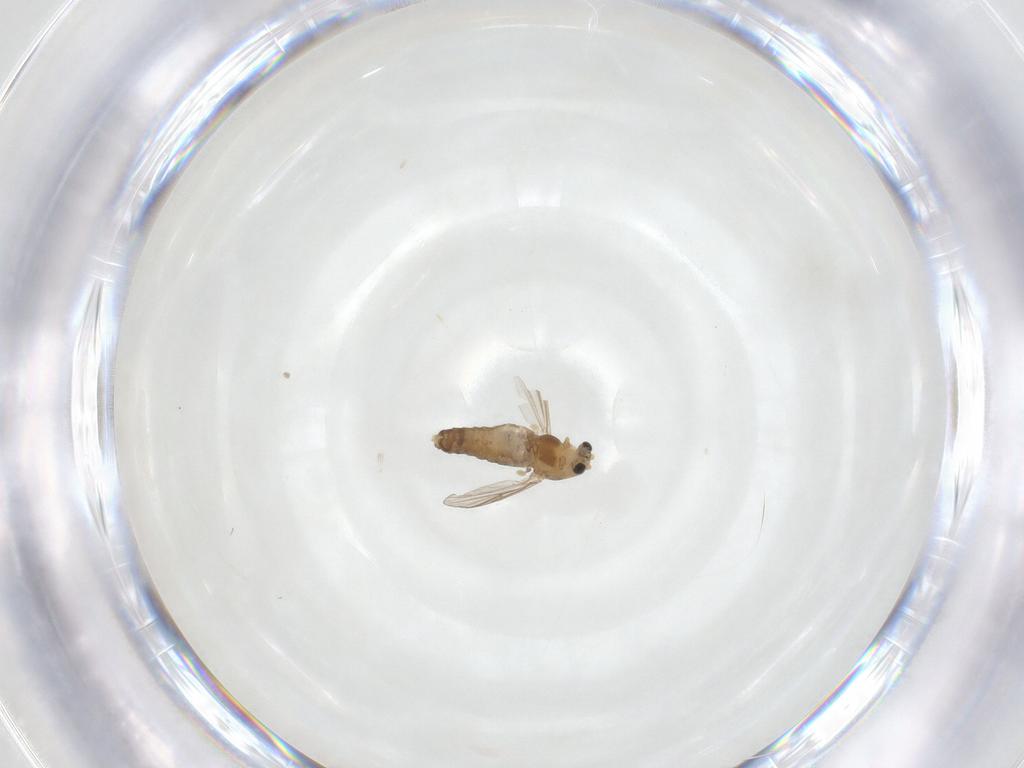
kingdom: Animalia
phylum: Arthropoda
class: Insecta
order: Diptera
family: Chironomidae
